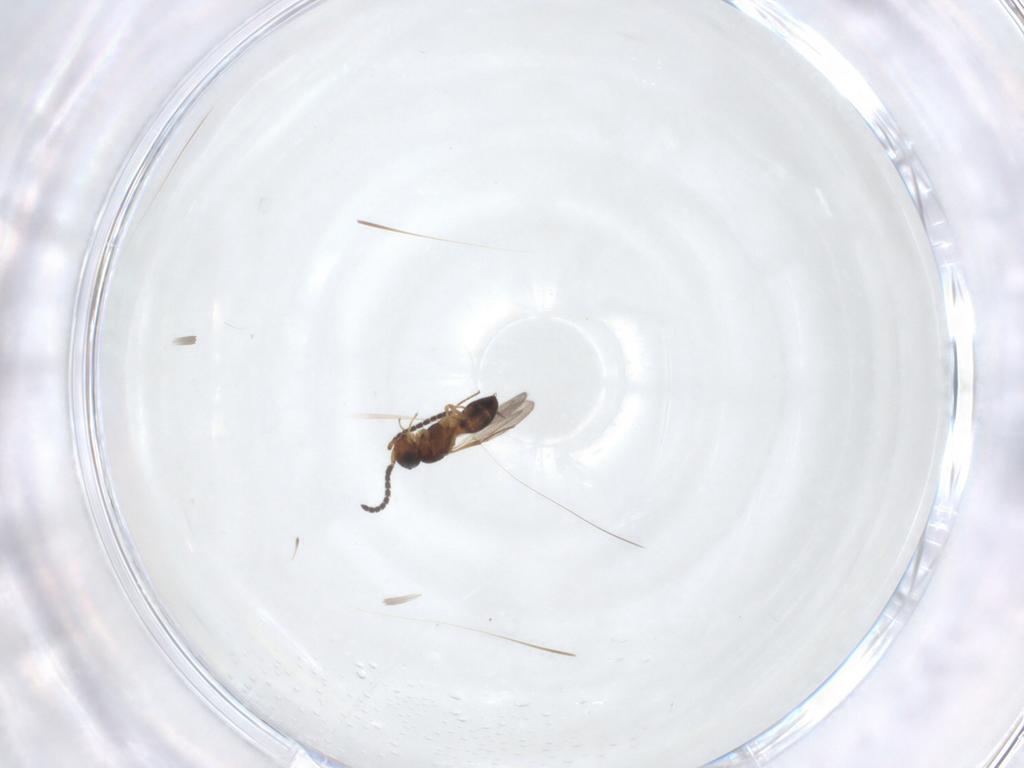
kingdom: Animalia
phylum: Arthropoda
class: Insecta
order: Hymenoptera
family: Scelionidae
